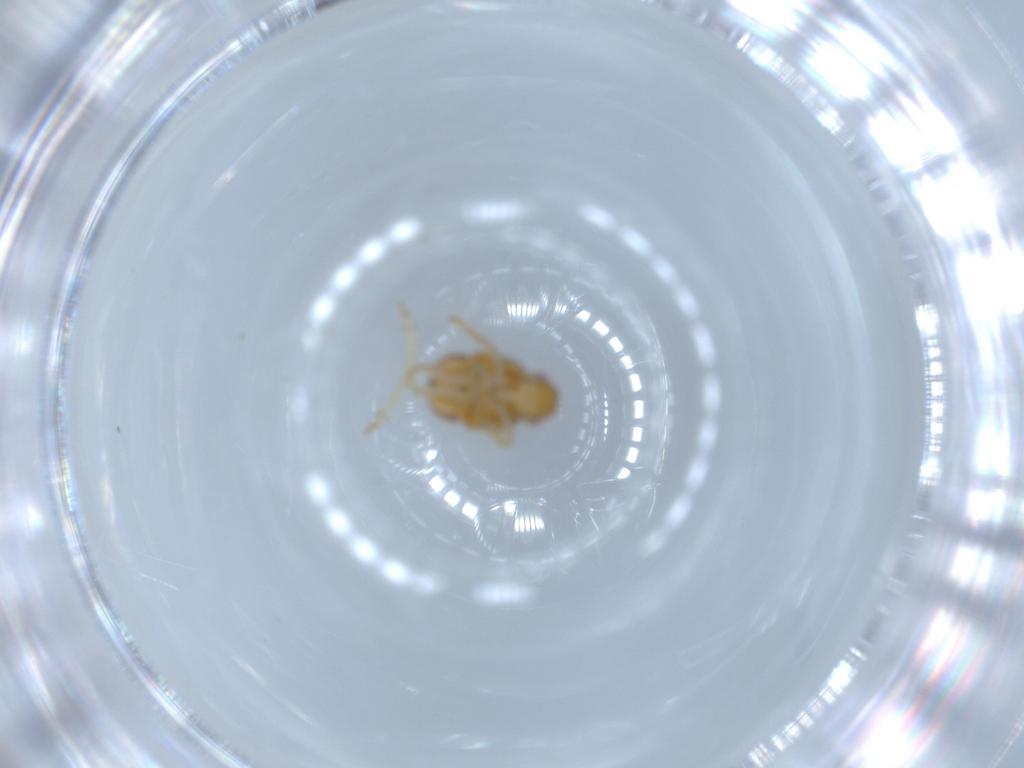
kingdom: Animalia
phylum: Arthropoda
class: Insecta
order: Hemiptera
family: Issidae
